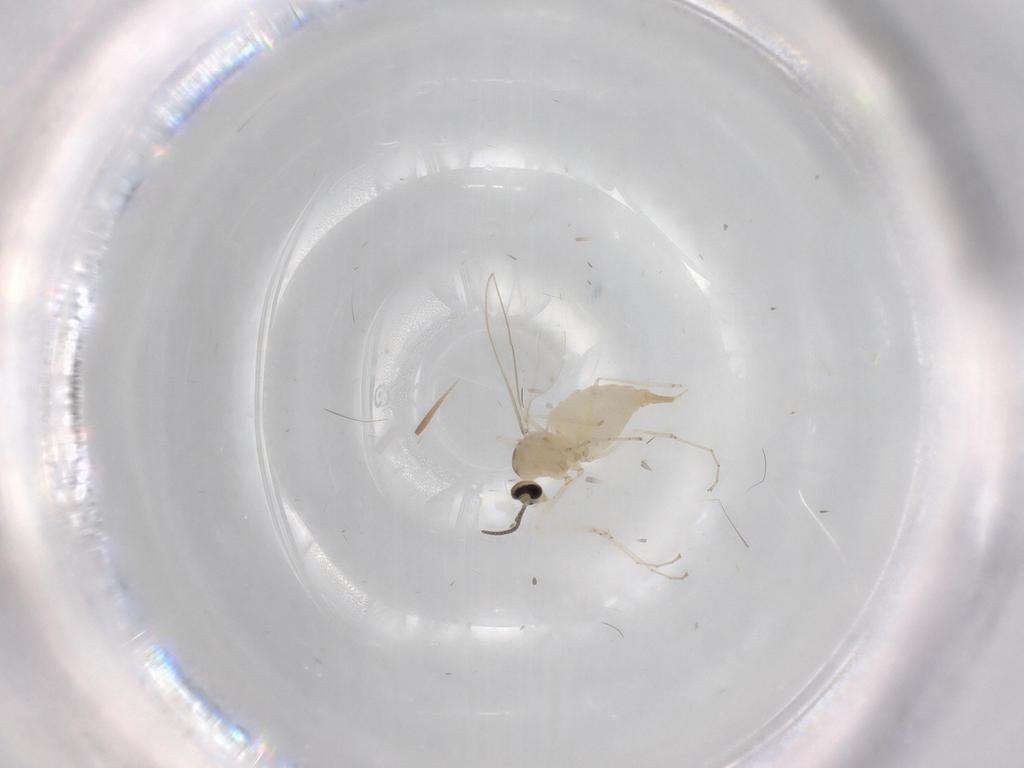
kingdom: Animalia
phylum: Arthropoda
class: Insecta
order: Diptera
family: Cecidomyiidae
